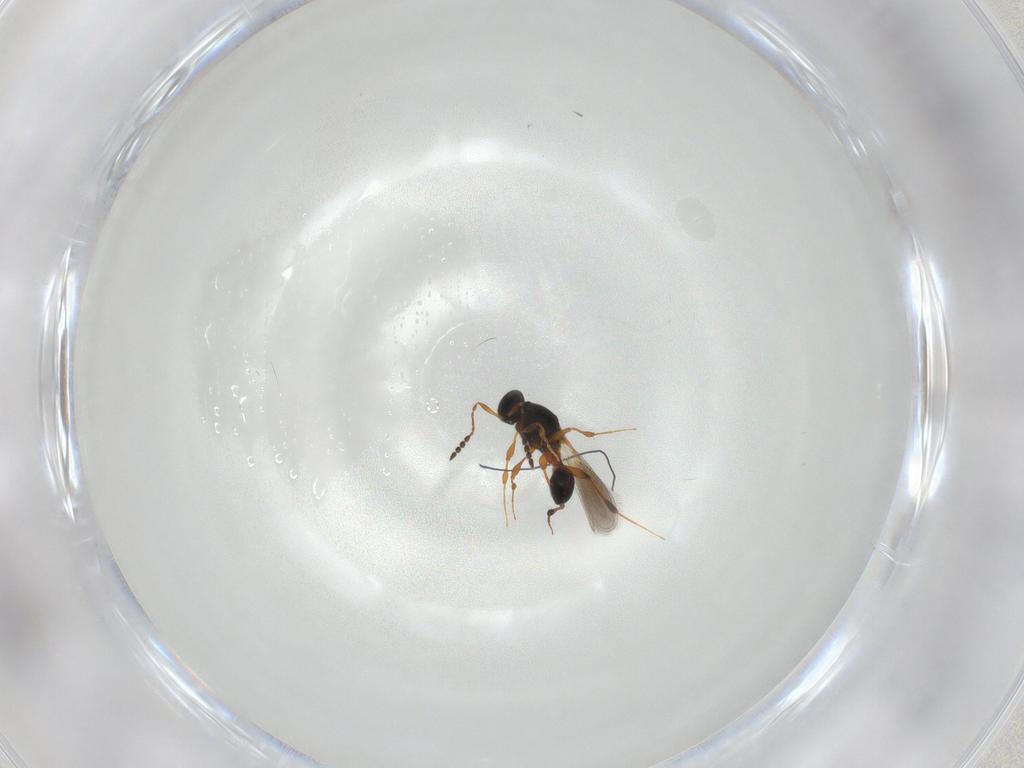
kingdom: Animalia
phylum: Arthropoda
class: Insecta
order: Hymenoptera
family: Platygastridae
